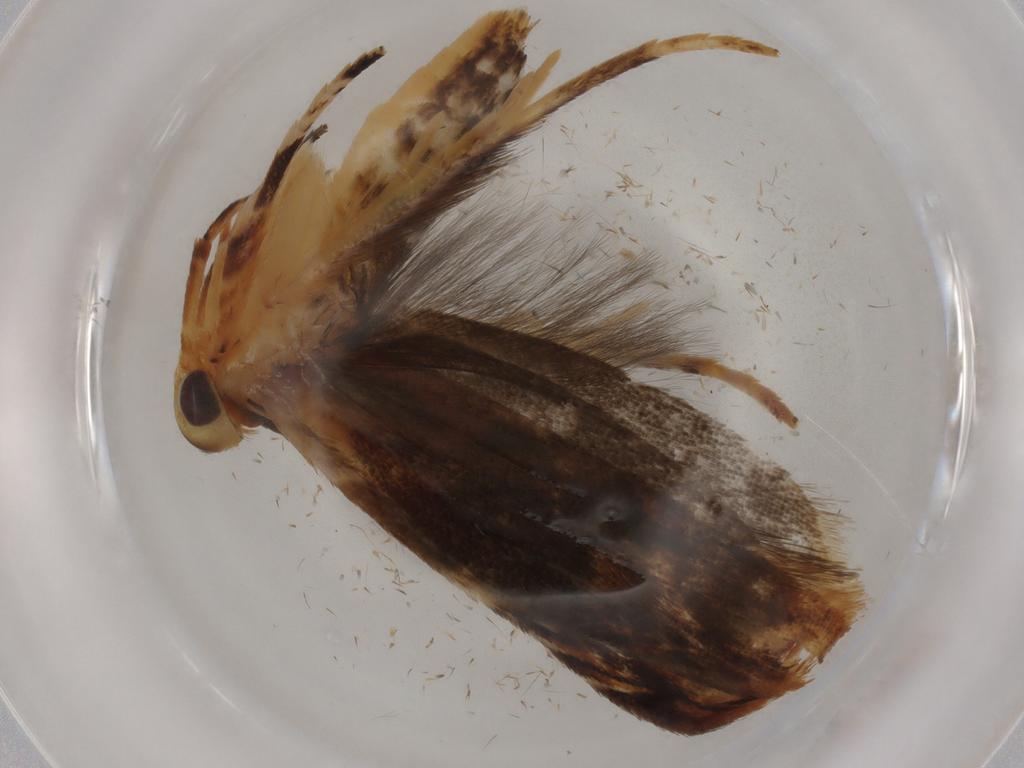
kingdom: Animalia
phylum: Arthropoda
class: Insecta
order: Lepidoptera
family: Gelechiidae
